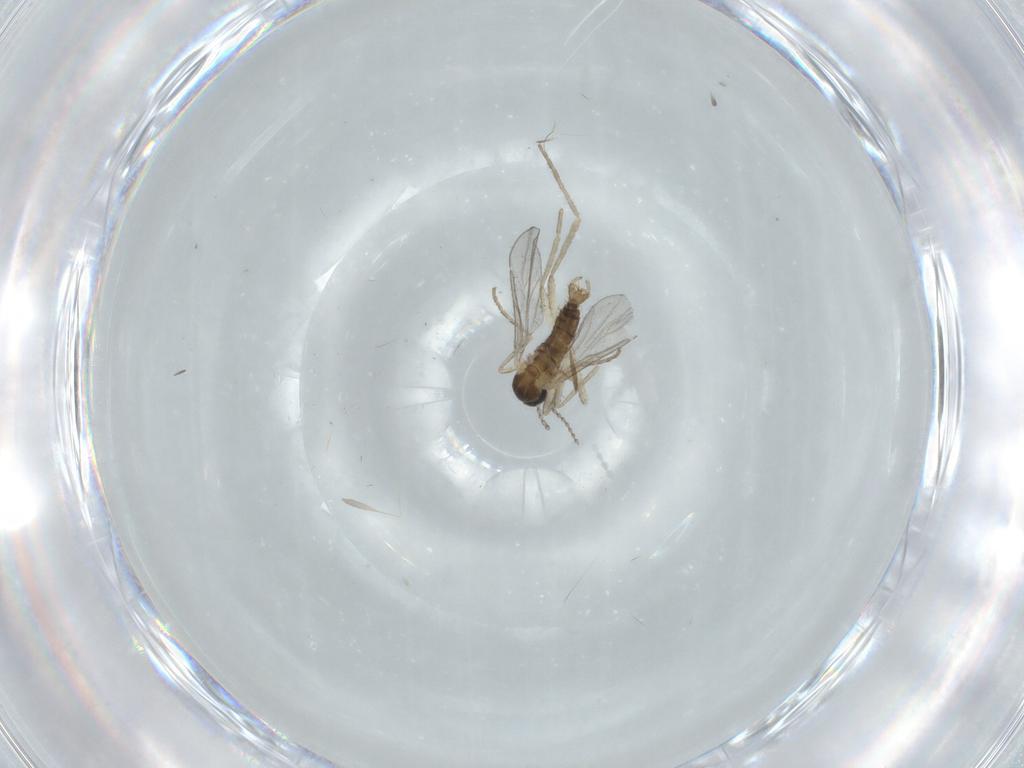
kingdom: Animalia
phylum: Arthropoda
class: Insecta
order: Diptera
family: Cecidomyiidae
